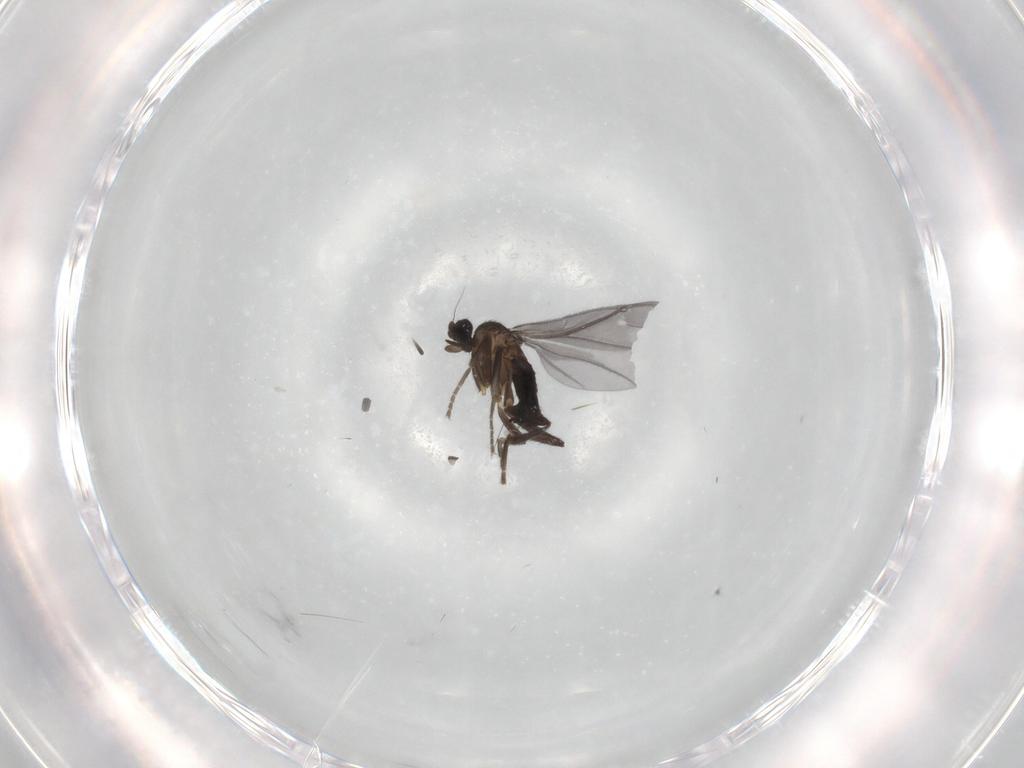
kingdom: Animalia
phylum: Arthropoda
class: Insecta
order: Diptera
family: Phoridae
